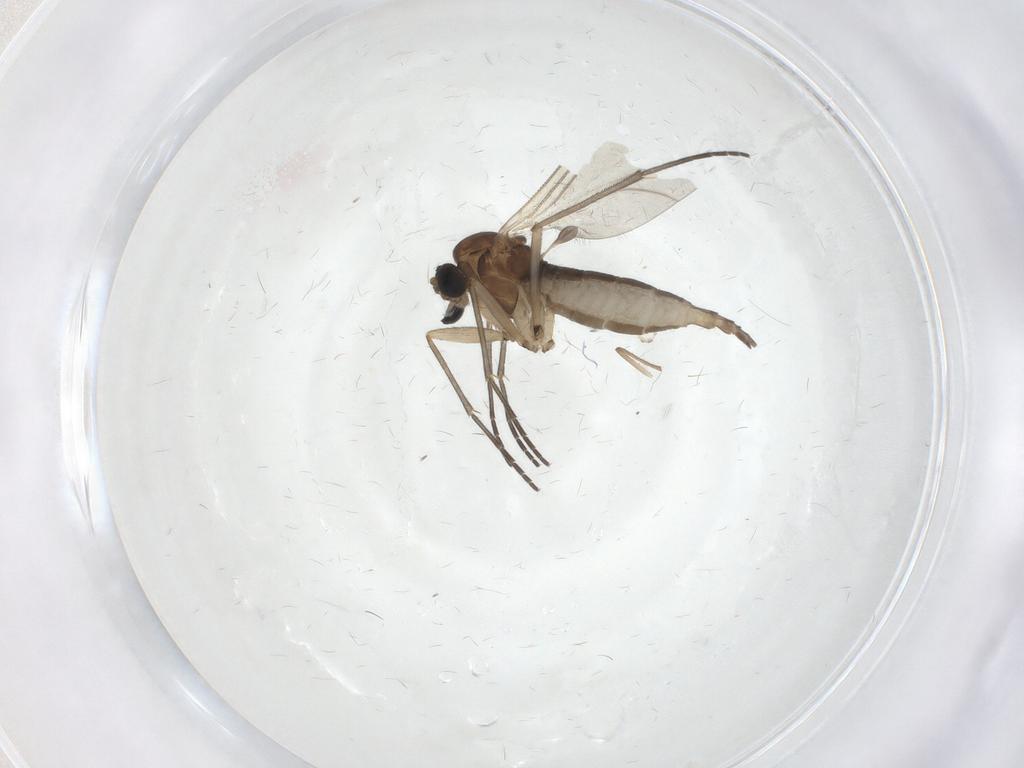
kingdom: Animalia
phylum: Arthropoda
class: Insecta
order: Diptera
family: Sciaridae
